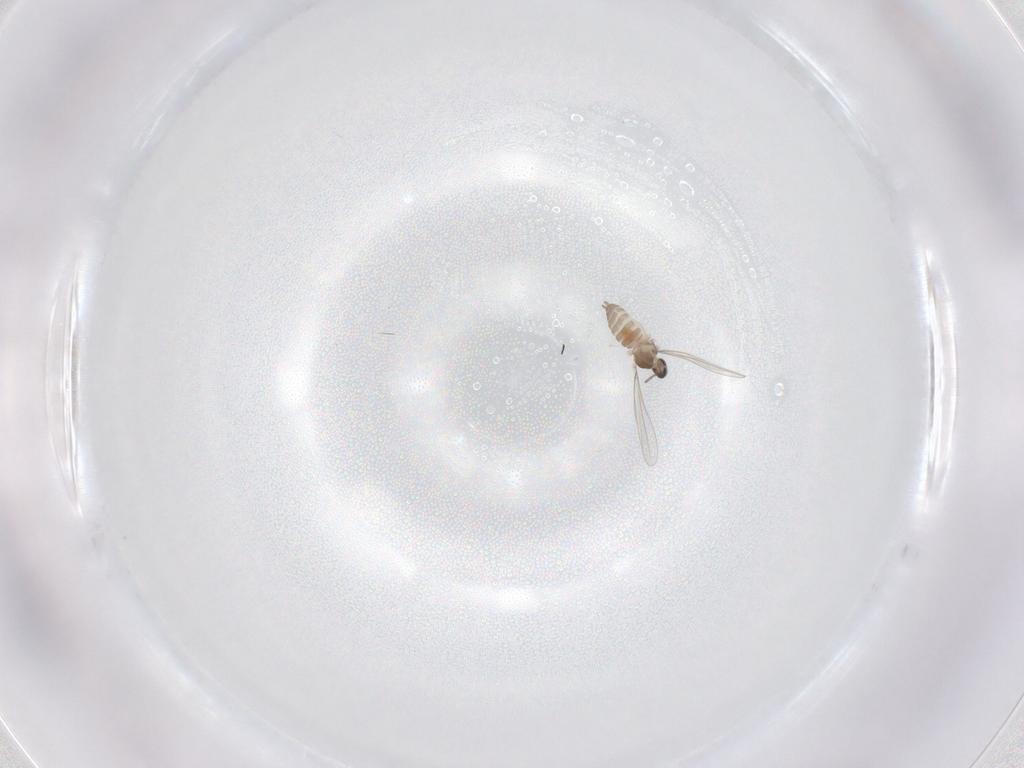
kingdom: Animalia
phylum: Arthropoda
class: Insecta
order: Diptera
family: Cecidomyiidae
